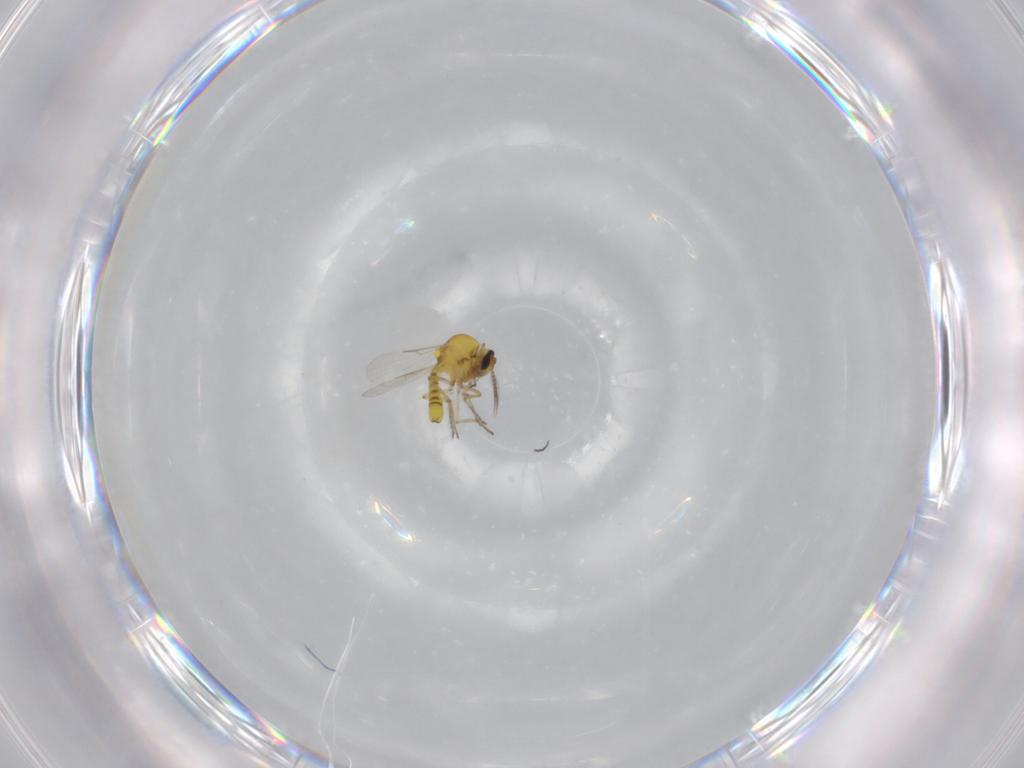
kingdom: Animalia
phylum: Arthropoda
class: Insecta
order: Diptera
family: Ceratopogonidae
